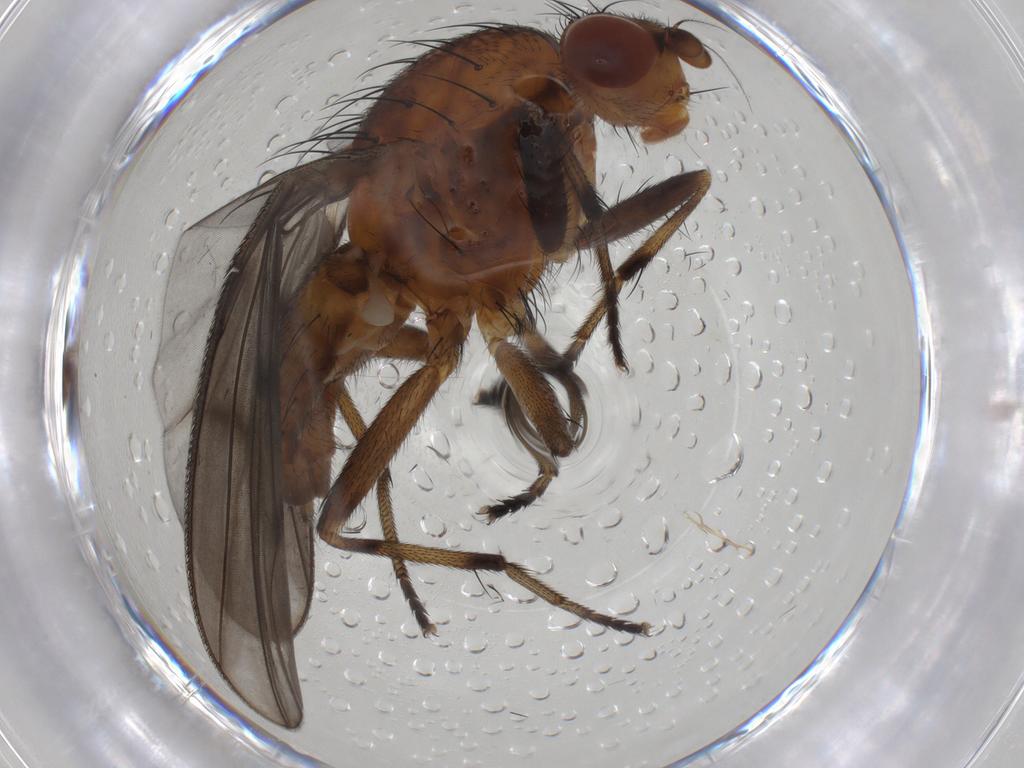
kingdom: Animalia
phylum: Arthropoda
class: Insecta
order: Diptera
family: Heleomyzidae
